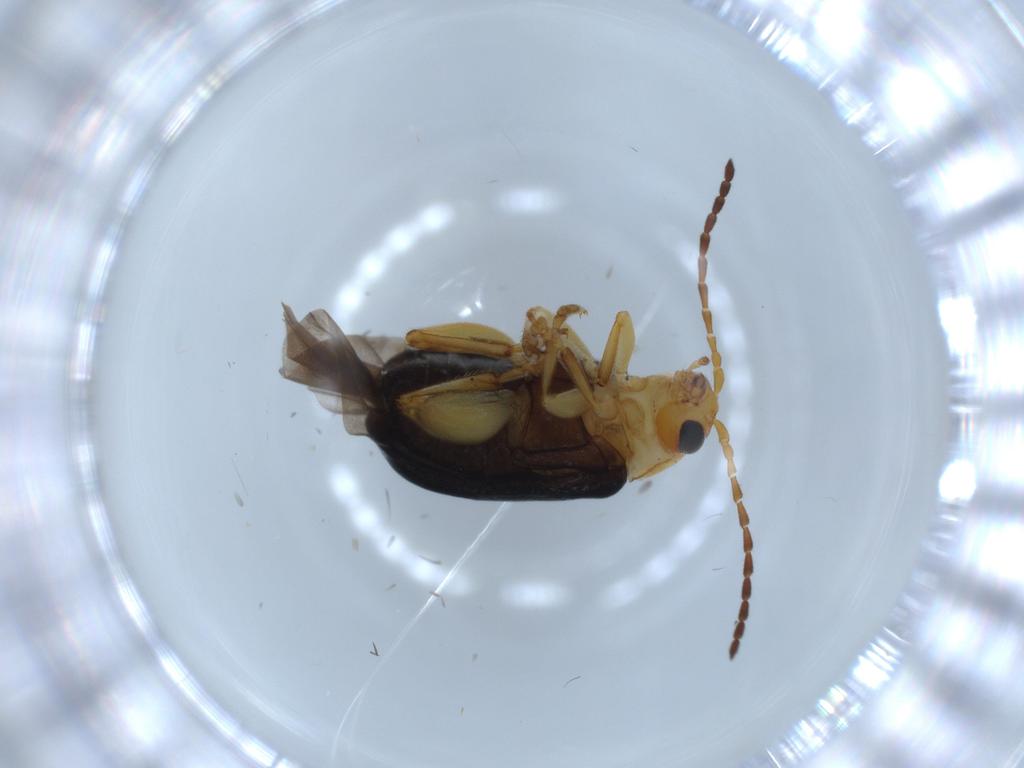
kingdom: Animalia
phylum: Arthropoda
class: Insecta
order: Coleoptera
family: Chrysomelidae
